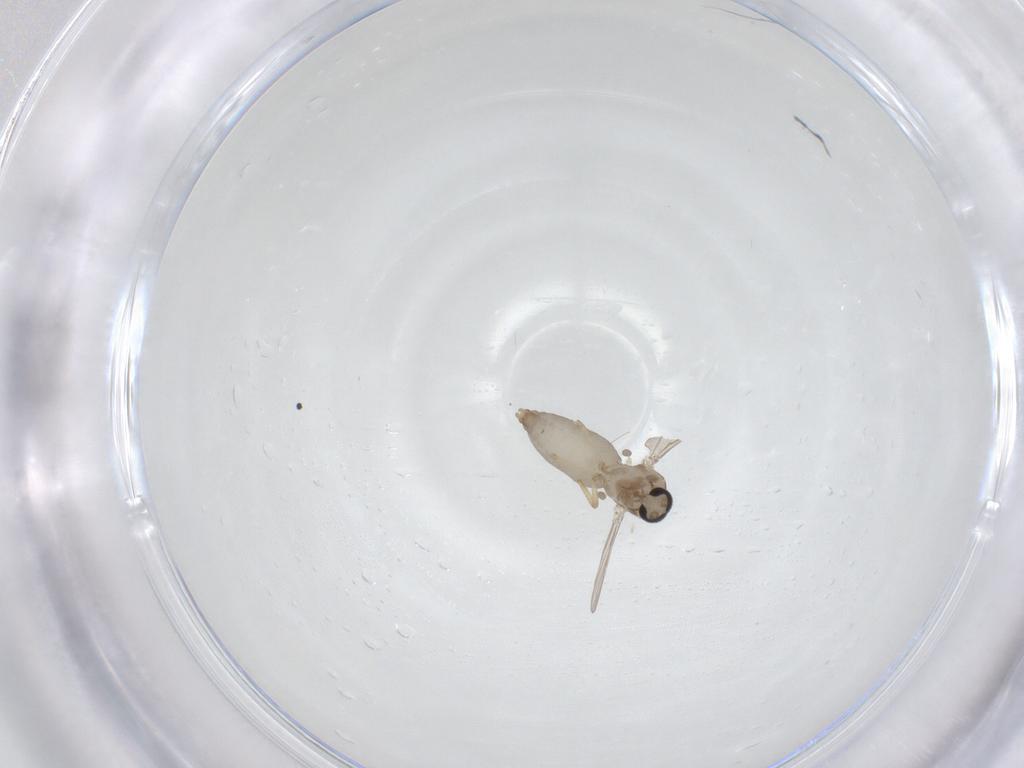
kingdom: Animalia
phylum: Arthropoda
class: Insecta
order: Diptera
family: Ceratopogonidae
